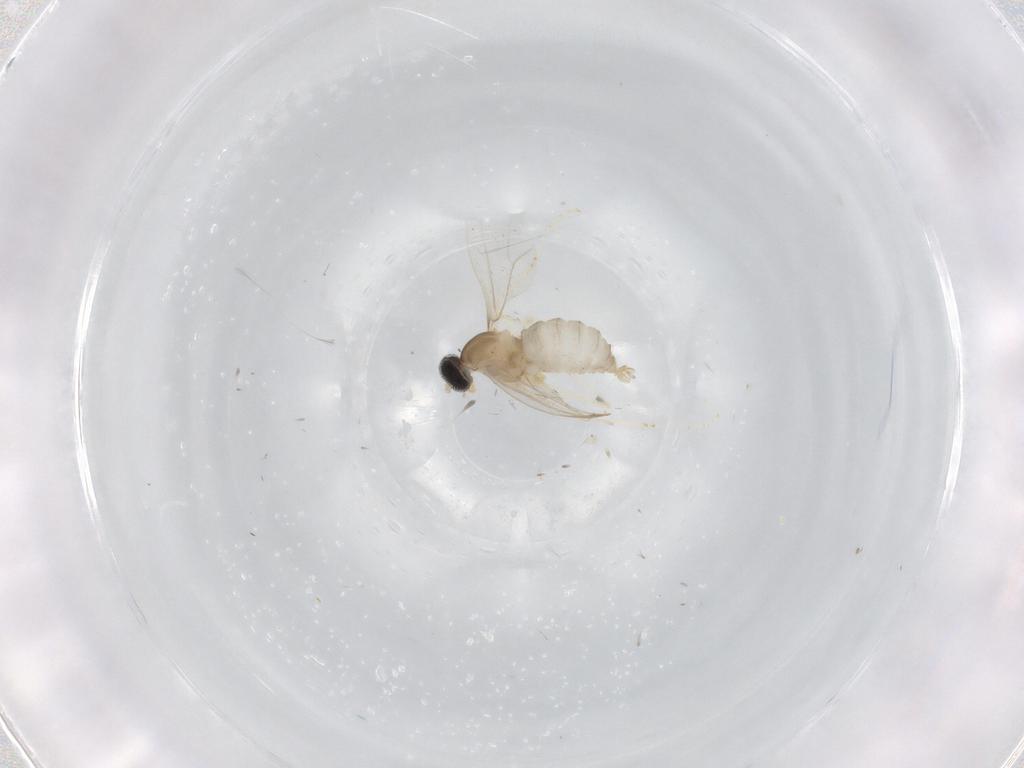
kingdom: Animalia
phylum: Arthropoda
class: Insecta
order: Diptera
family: Cecidomyiidae
